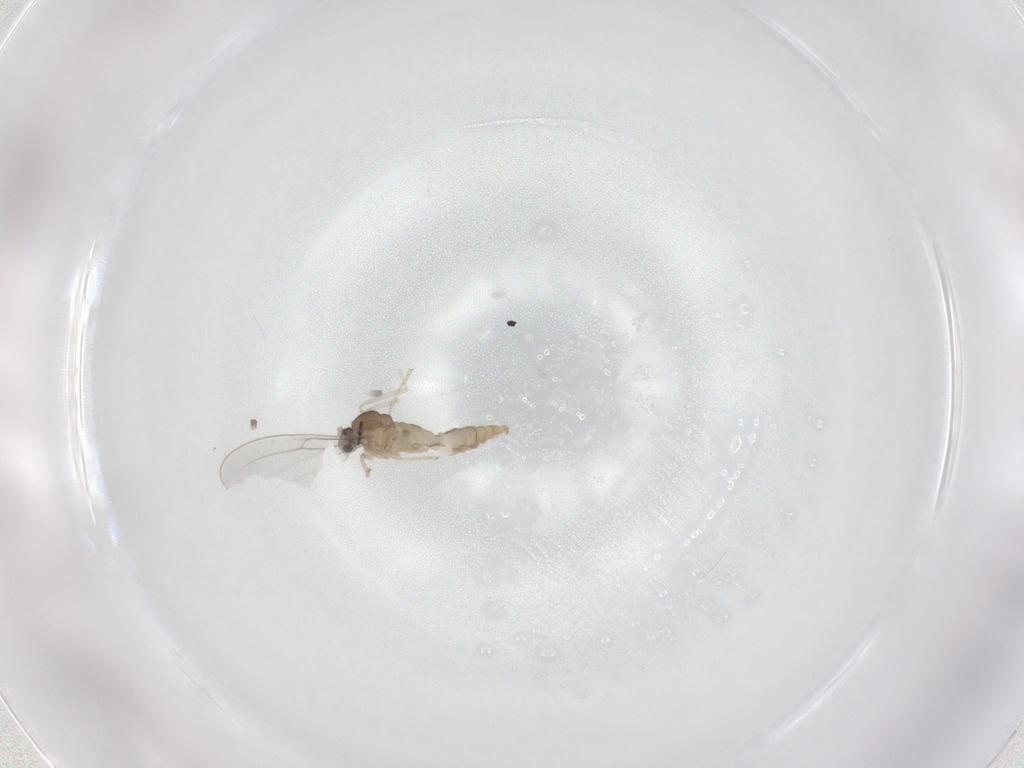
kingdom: Animalia
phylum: Arthropoda
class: Insecta
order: Diptera
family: Cecidomyiidae
